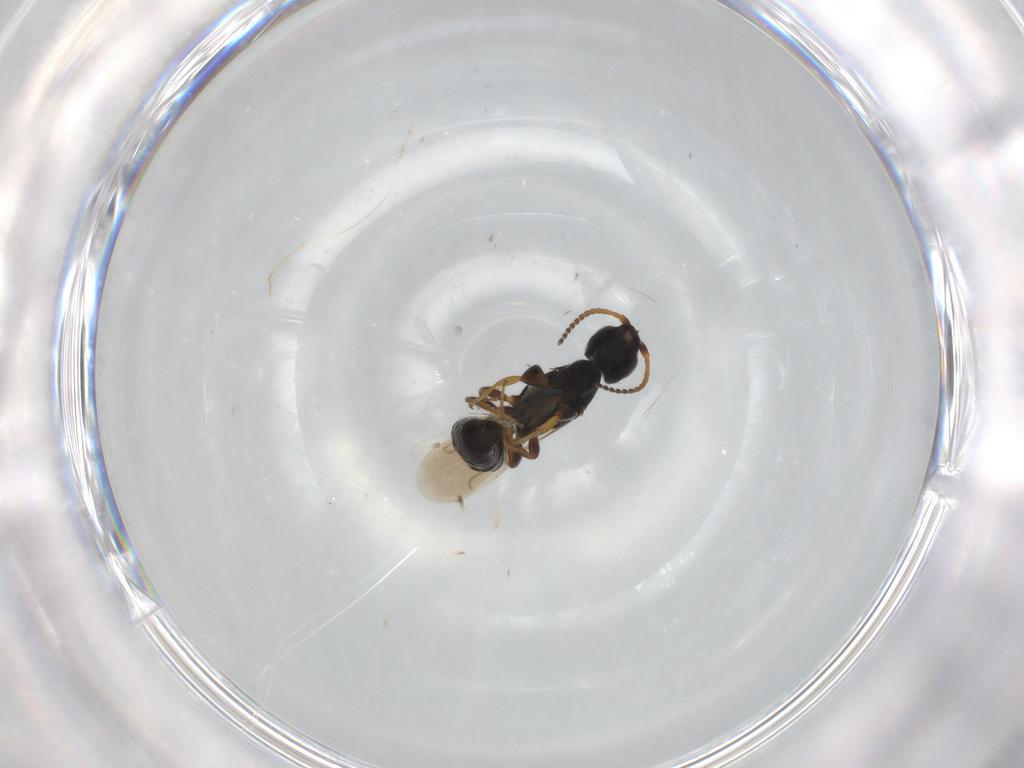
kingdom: Animalia
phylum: Arthropoda
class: Insecta
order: Hymenoptera
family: Bethylidae
